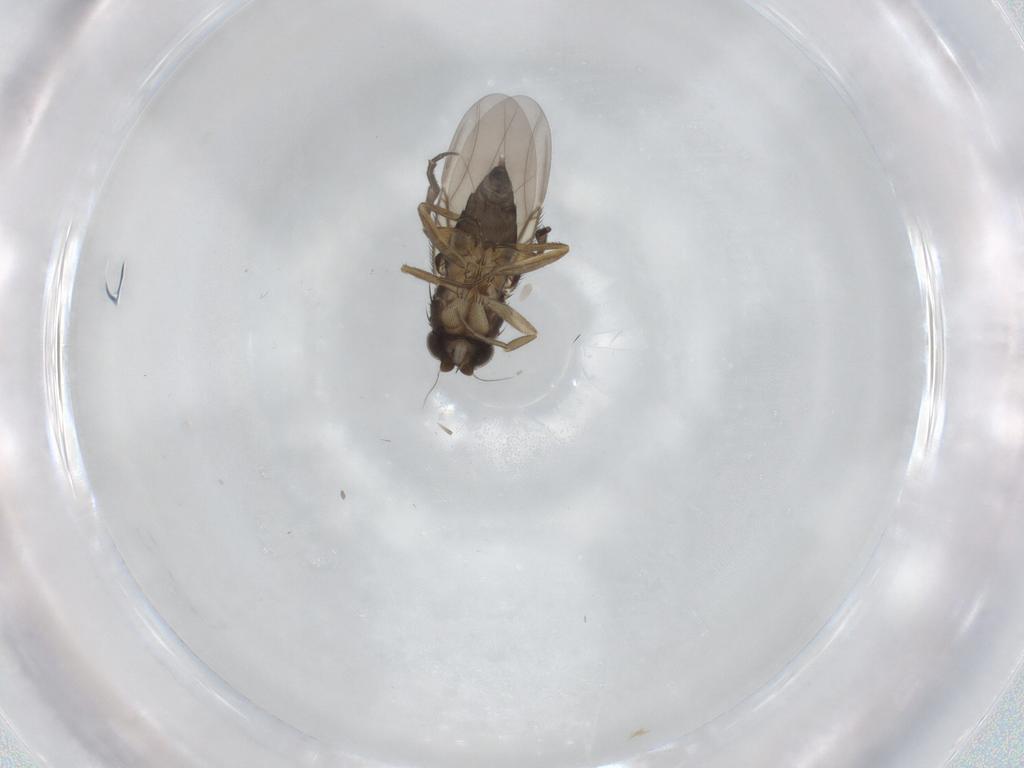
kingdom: Animalia
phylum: Arthropoda
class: Insecta
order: Diptera
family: Phoridae
